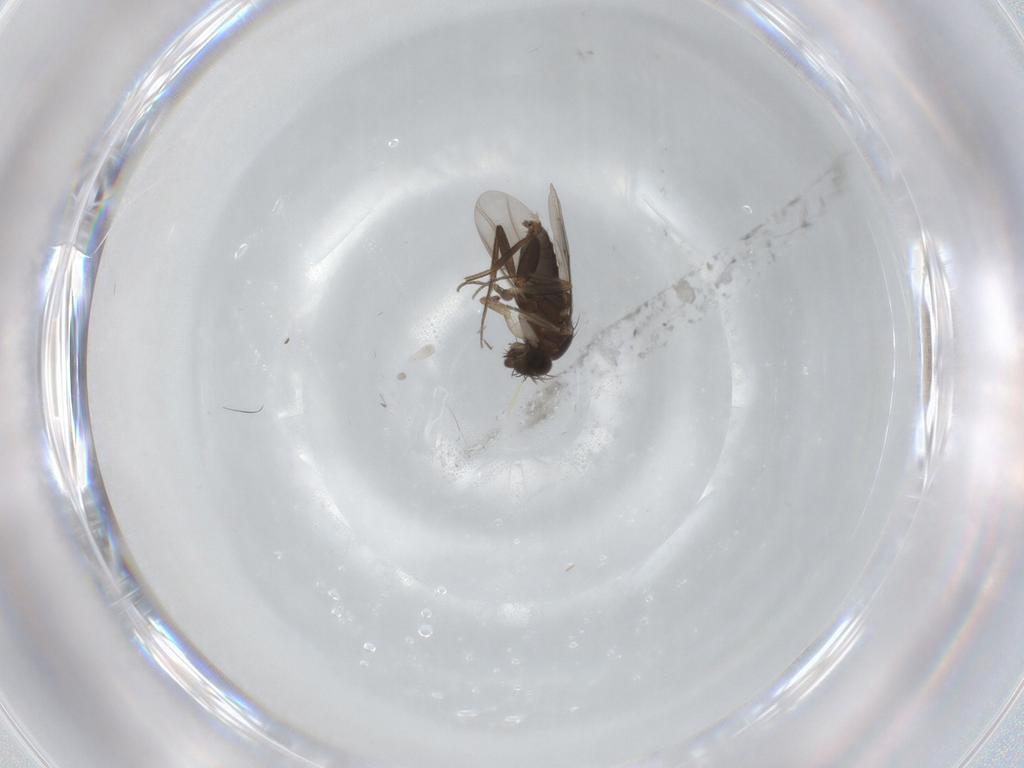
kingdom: Animalia
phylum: Arthropoda
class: Insecta
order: Diptera
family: Phoridae
